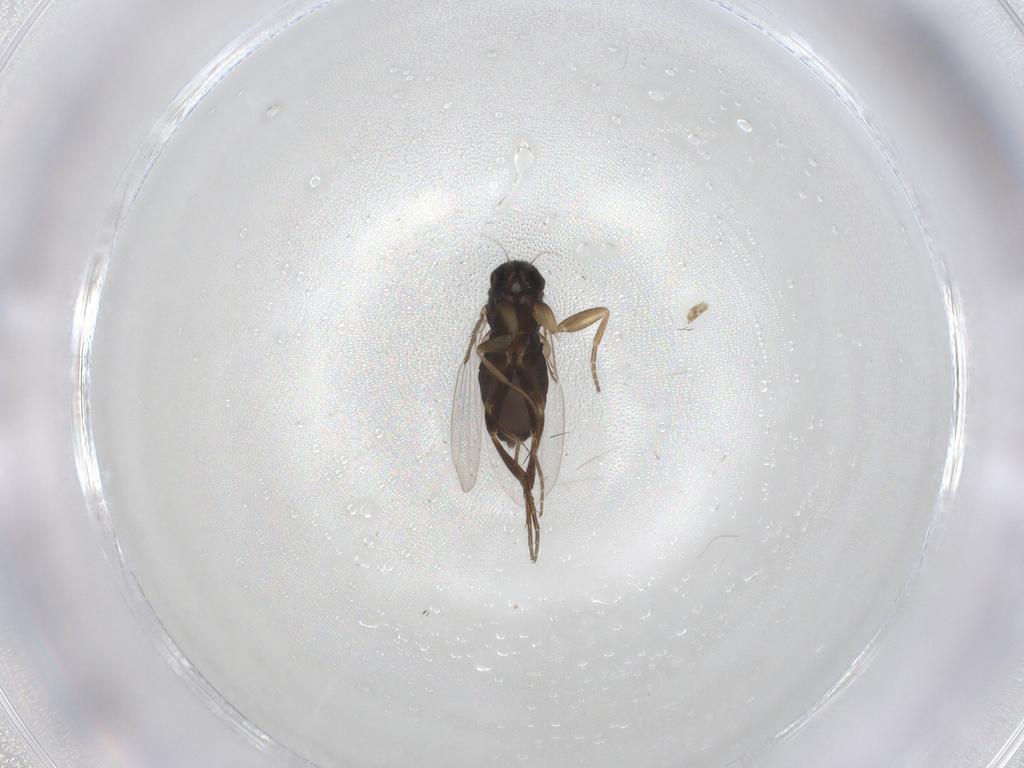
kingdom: Animalia
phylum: Arthropoda
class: Insecta
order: Diptera
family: Phoridae
